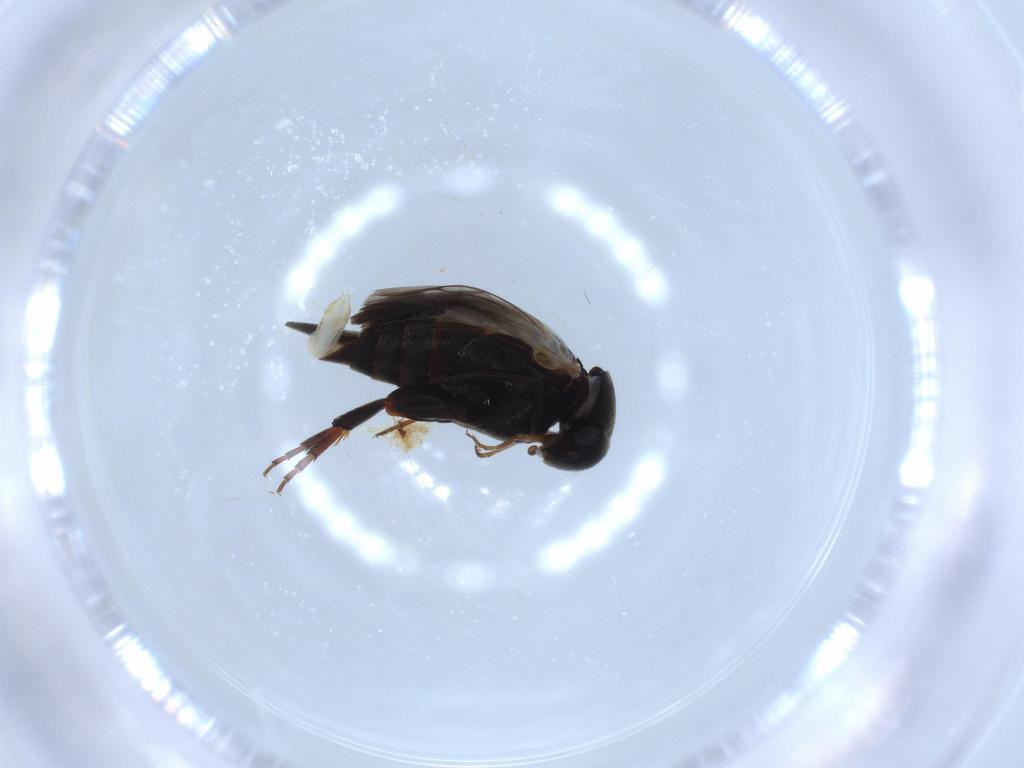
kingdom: Animalia
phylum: Arthropoda
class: Insecta
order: Coleoptera
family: Mordellidae
